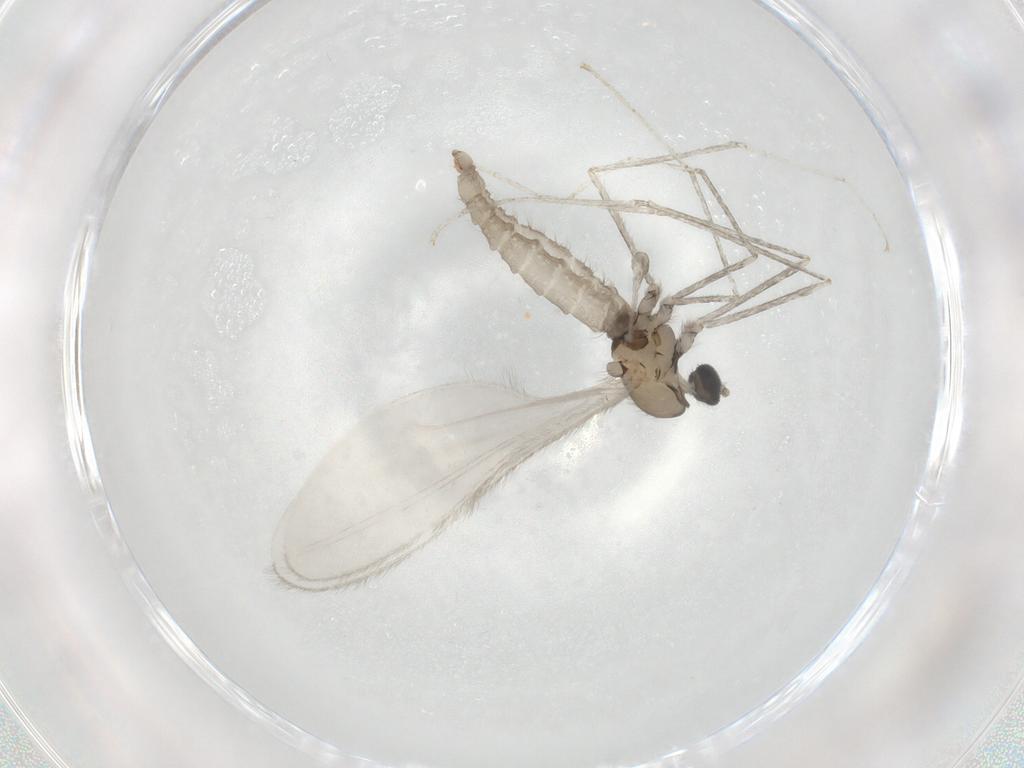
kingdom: Animalia
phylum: Arthropoda
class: Insecta
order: Diptera
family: Cecidomyiidae
